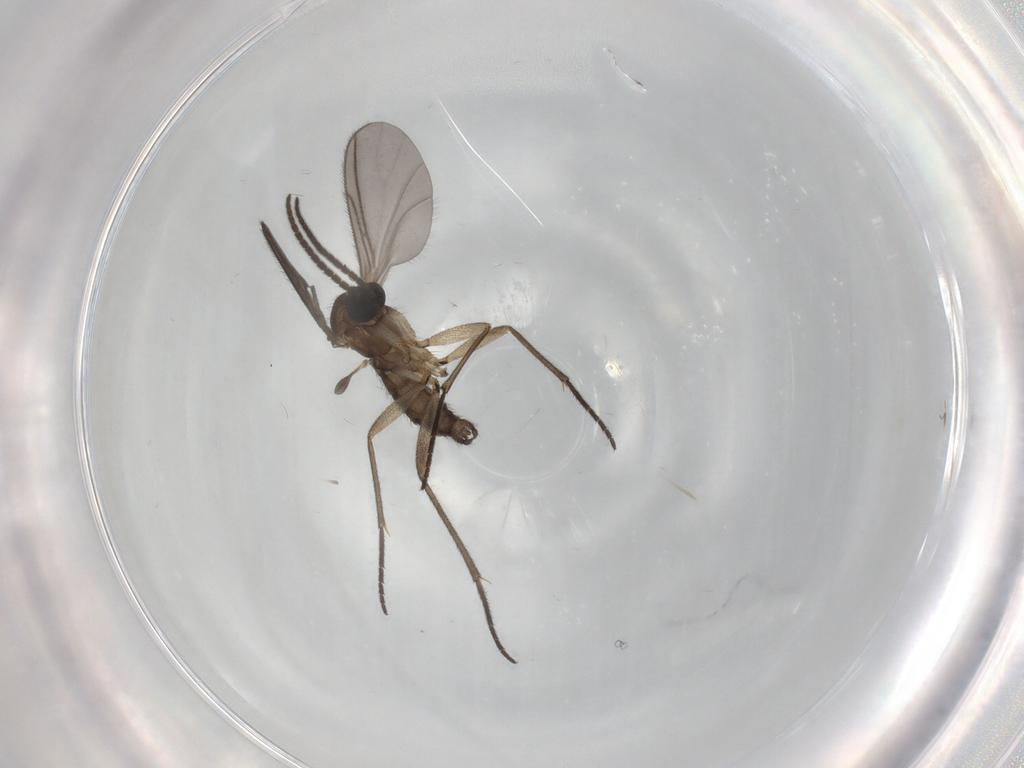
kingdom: Animalia
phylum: Arthropoda
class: Insecta
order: Diptera
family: Sciaridae
